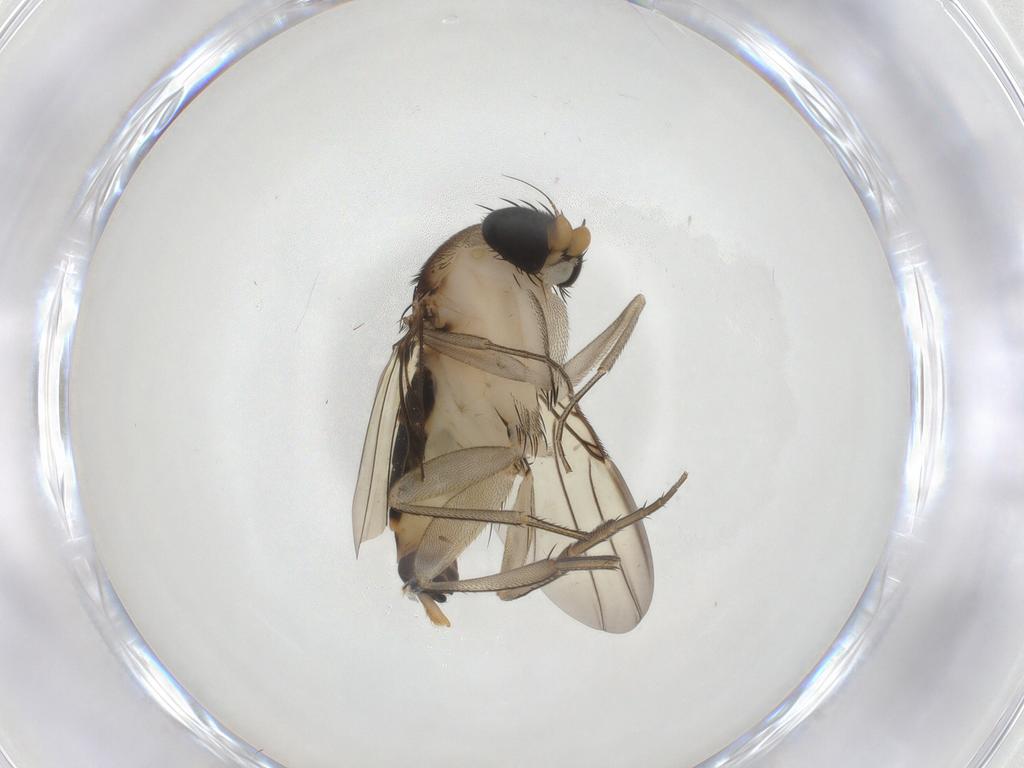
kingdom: Animalia
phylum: Arthropoda
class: Insecta
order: Diptera
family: Phoridae
